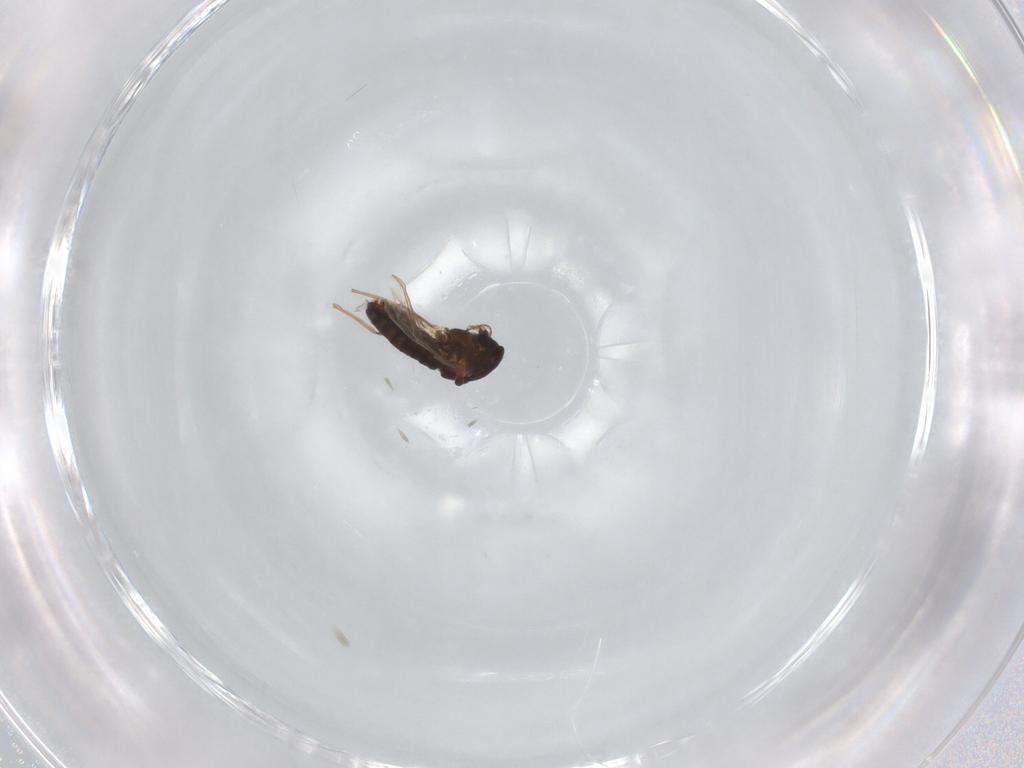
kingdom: Animalia
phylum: Arthropoda
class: Insecta
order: Diptera
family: Chironomidae
